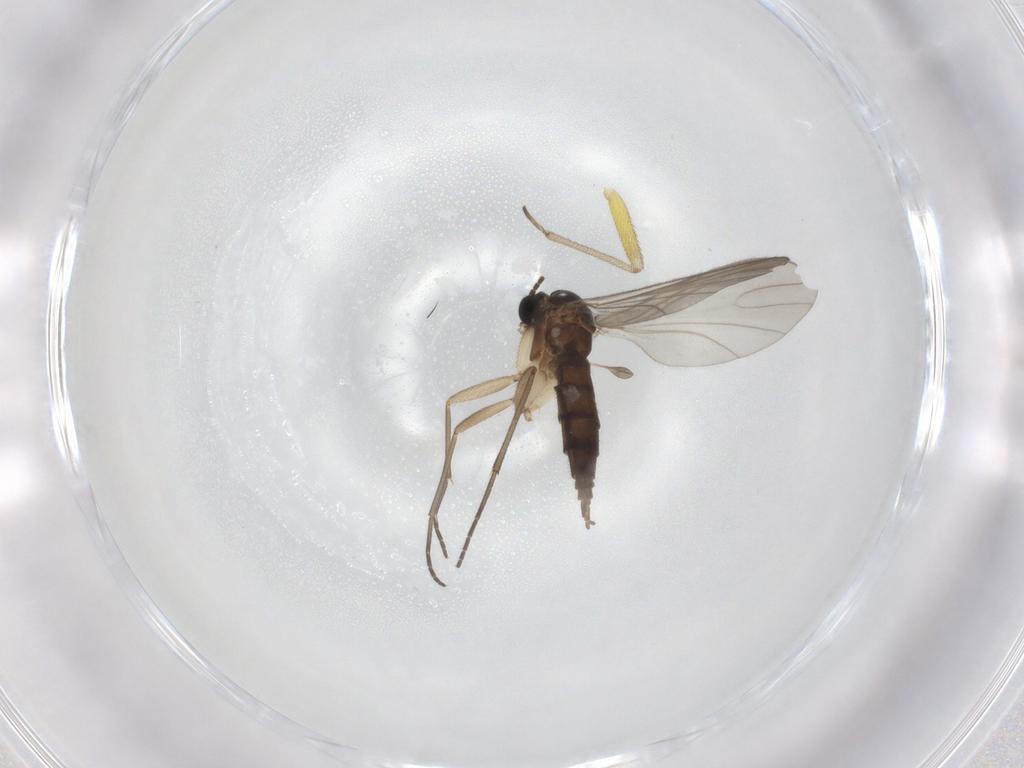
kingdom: Animalia
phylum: Arthropoda
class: Insecta
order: Diptera
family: Sciaridae
